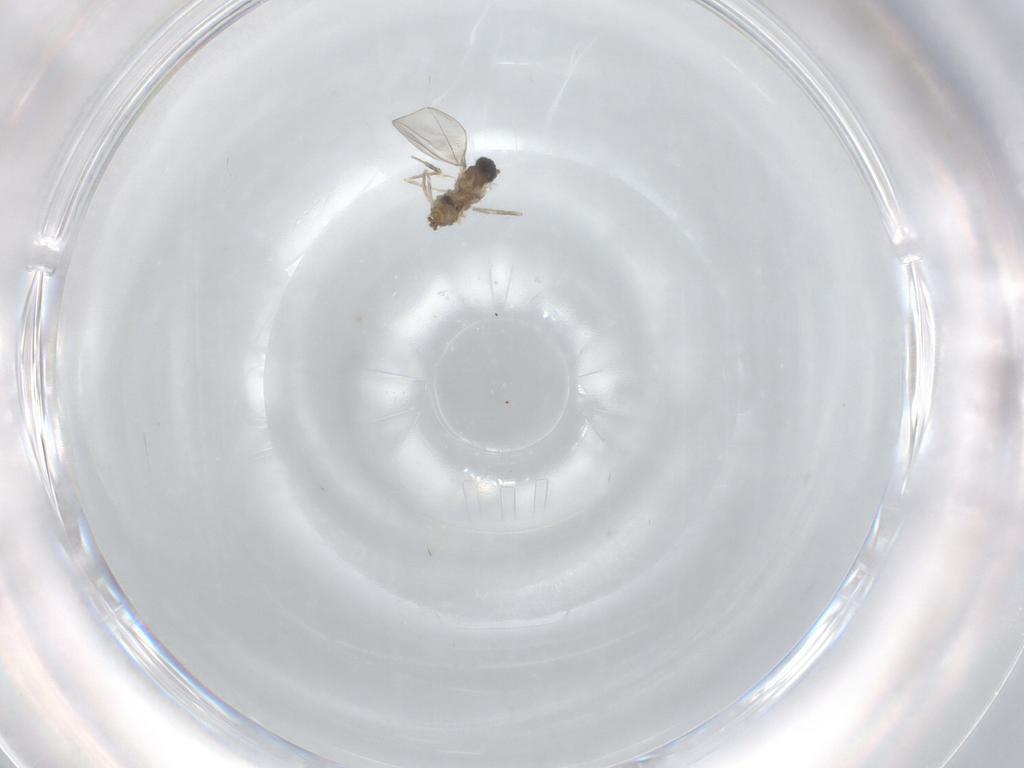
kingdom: Animalia
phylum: Arthropoda
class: Insecta
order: Diptera
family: Cecidomyiidae
